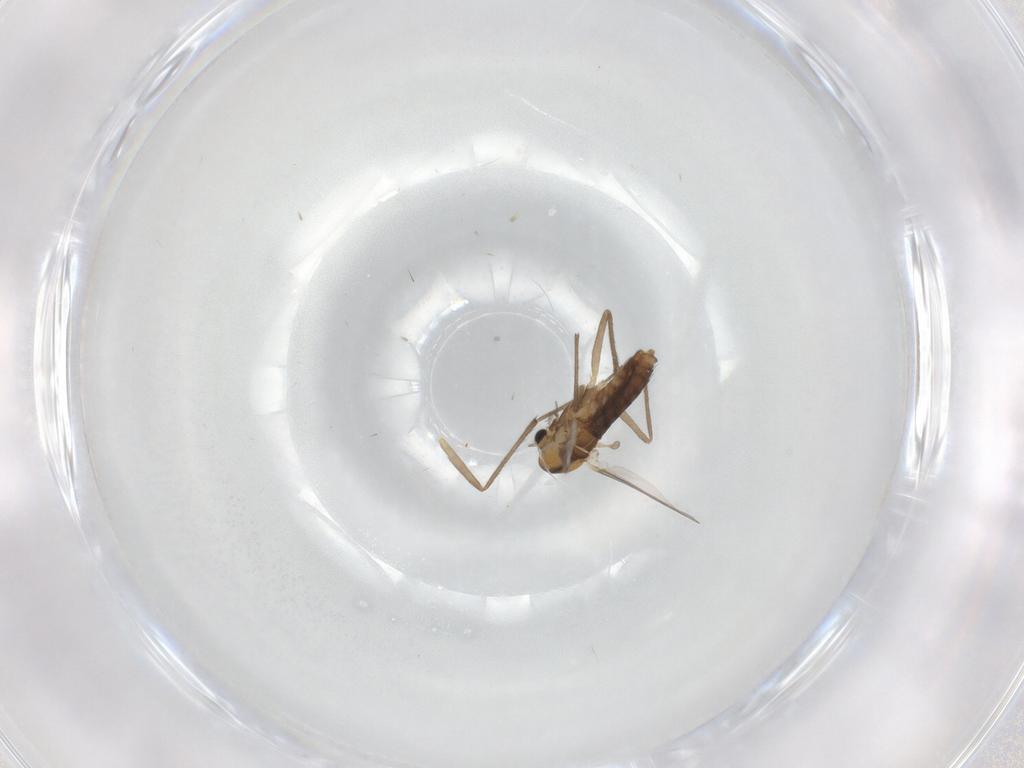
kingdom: Animalia
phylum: Arthropoda
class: Insecta
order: Diptera
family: Chironomidae
